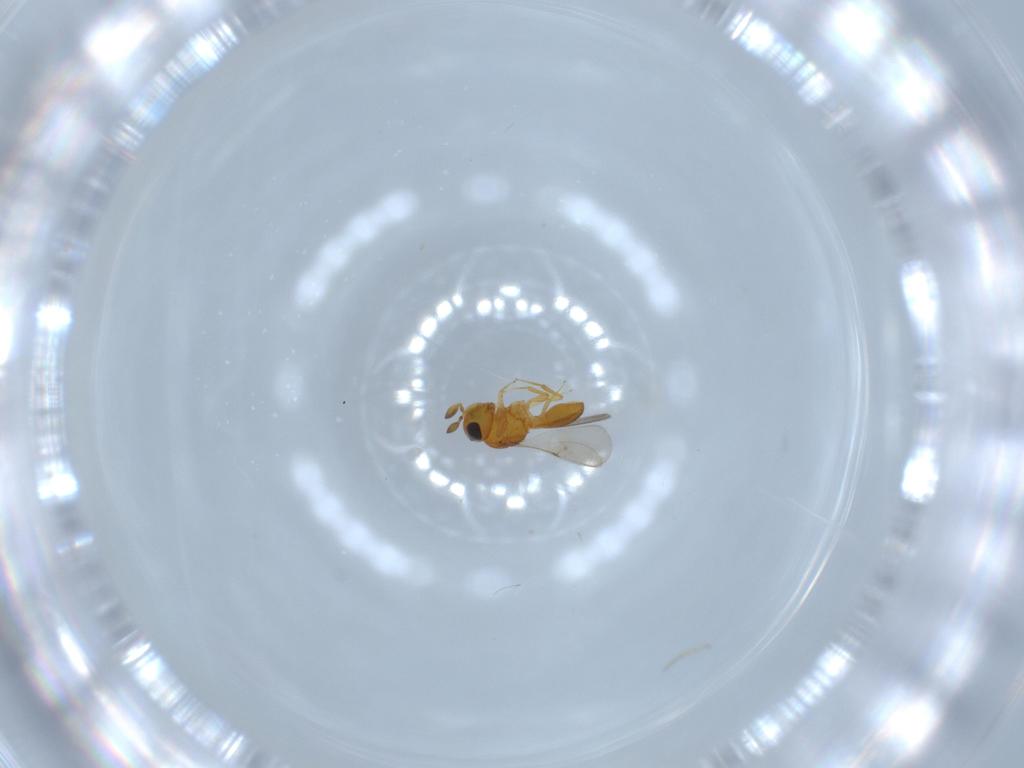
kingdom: Animalia
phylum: Arthropoda
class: Insecta
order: Hymenoptera
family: Scelionidae
